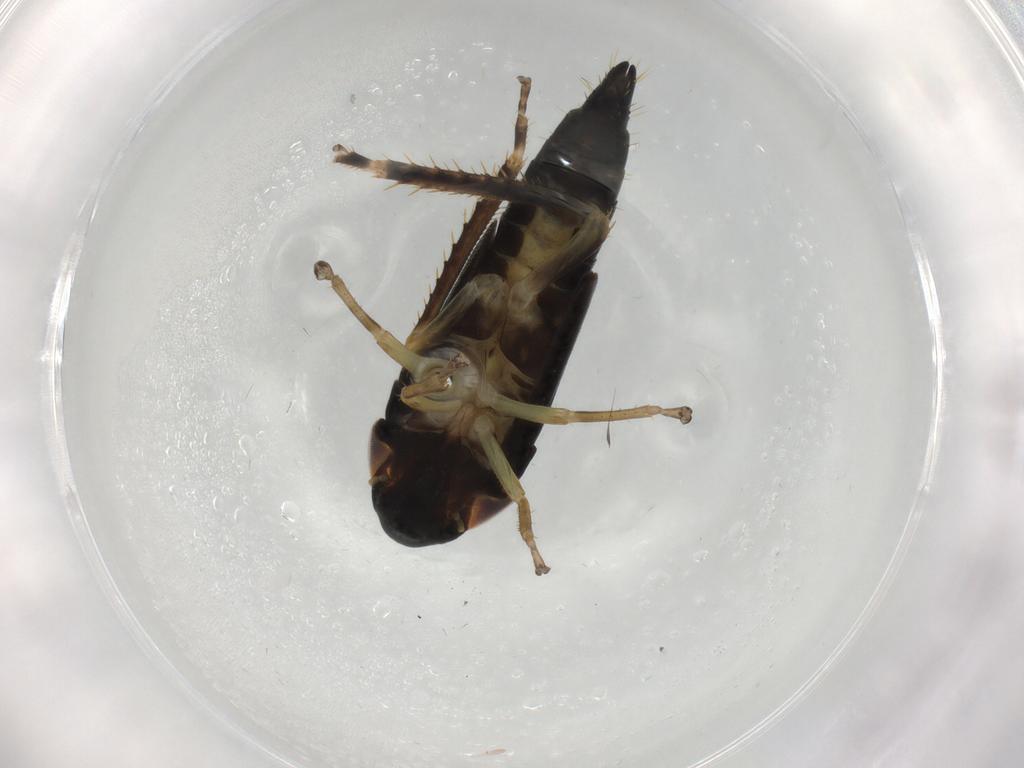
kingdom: Animalia
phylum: Arthropoda
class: Insecta
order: Hemiptera
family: Cicadellidae
